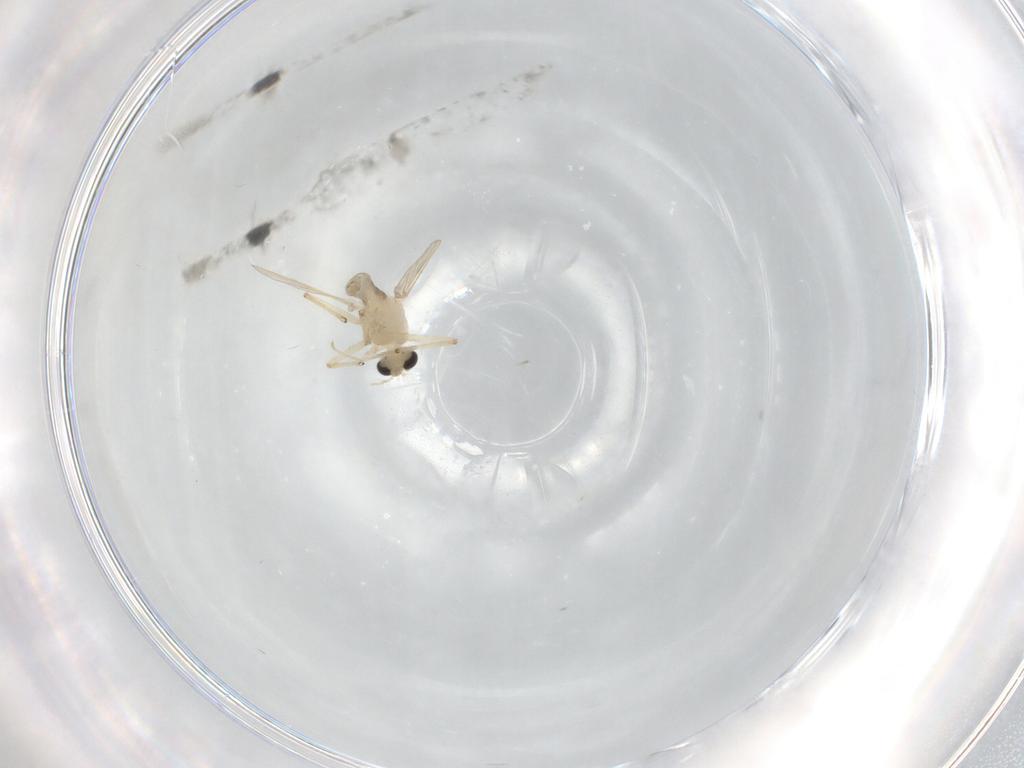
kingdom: Animalia
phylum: Arthropoda
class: Insecta
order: Diptera
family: Chironomidae
